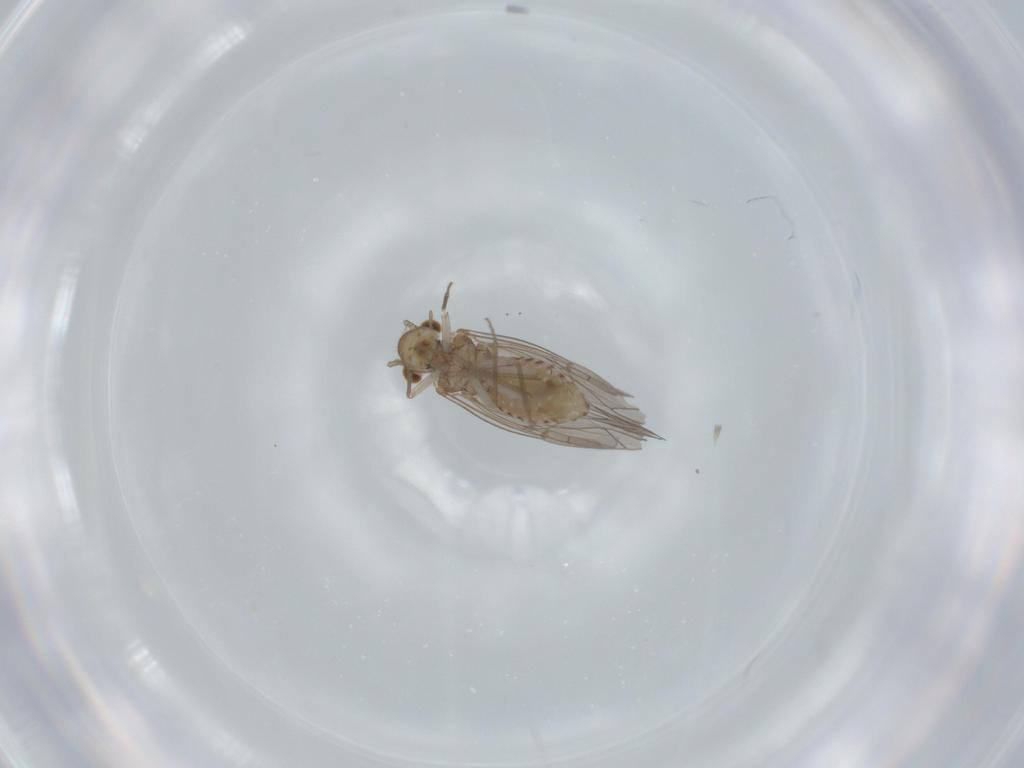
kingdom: Animalia
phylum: Arthropoda
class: Insecta
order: Psocodea
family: Lachesillidae
